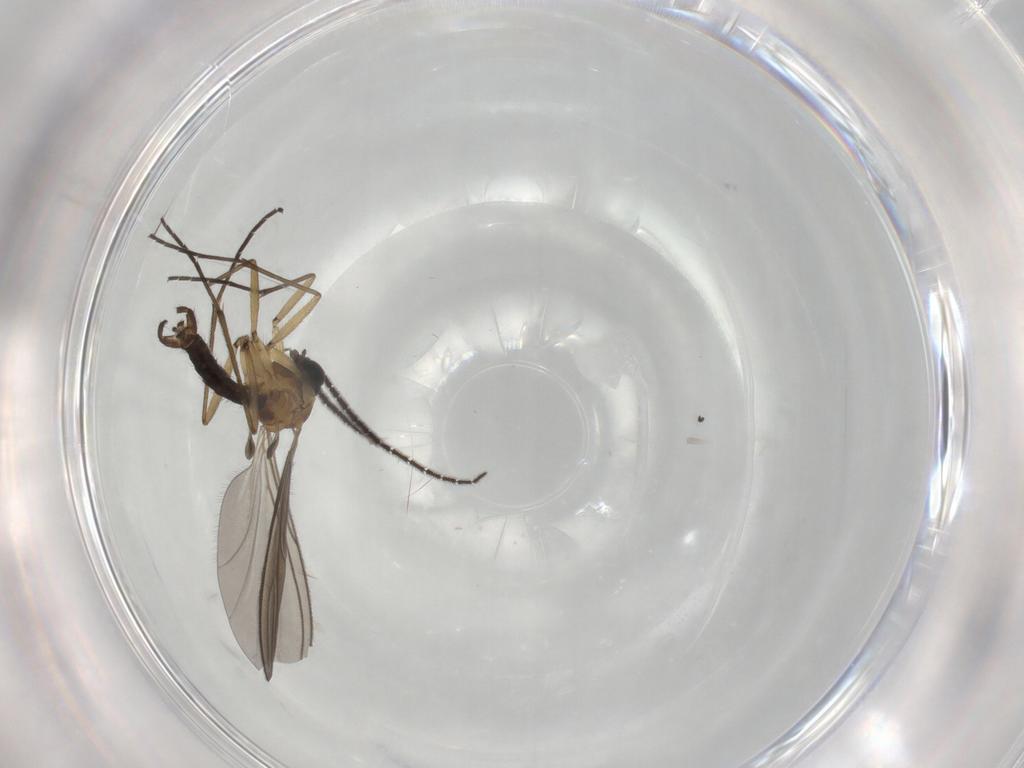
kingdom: Animalia
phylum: Arthropoda
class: Insecta
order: Diptera
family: Sciaridae
